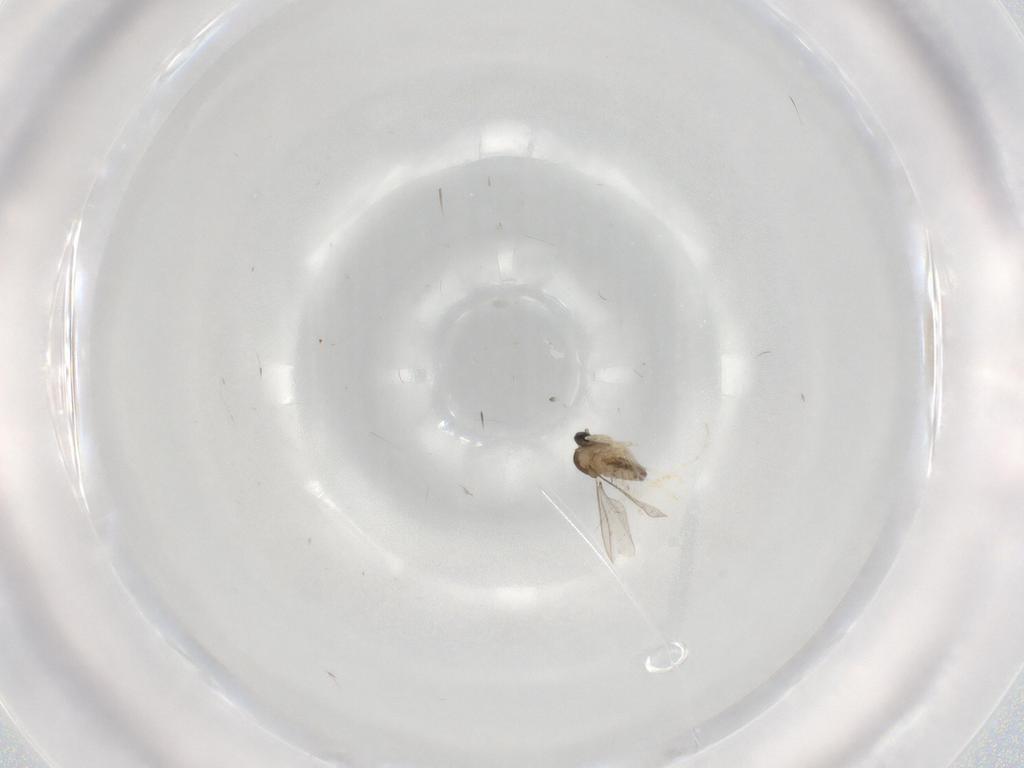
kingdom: Animalia
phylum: Arthropoda
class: Insecta
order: Diptera
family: Cecidomyiidae
